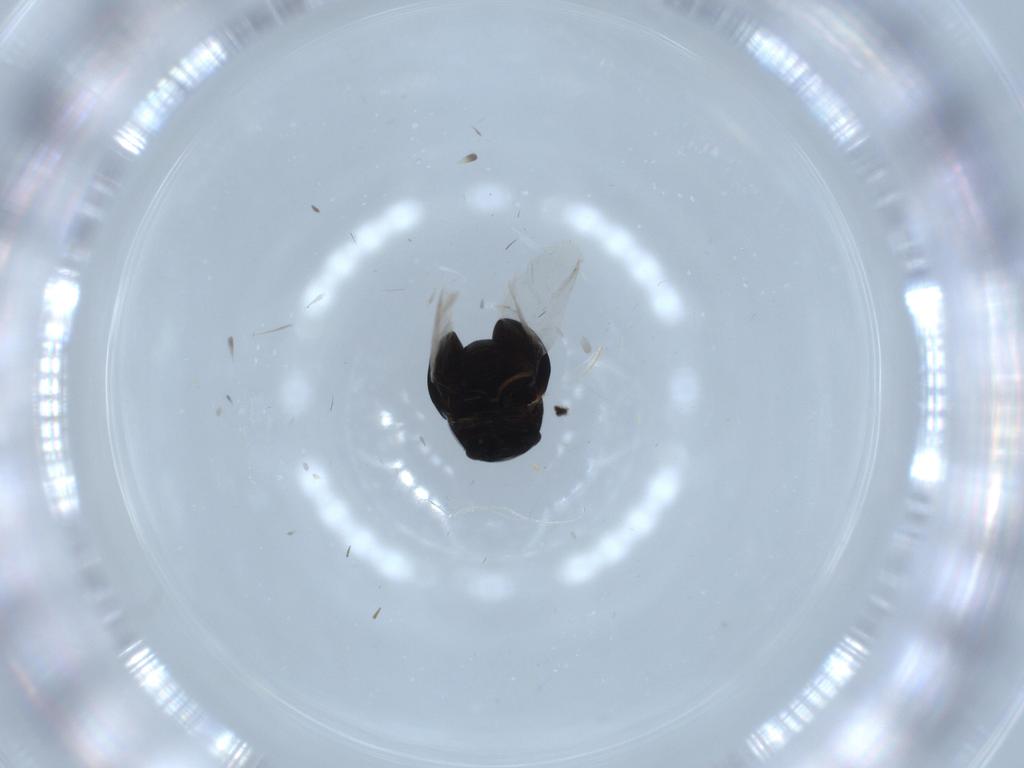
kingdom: Animalia
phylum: Arthropoda
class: Insecta
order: Coleoptera
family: Cybocephalidae
